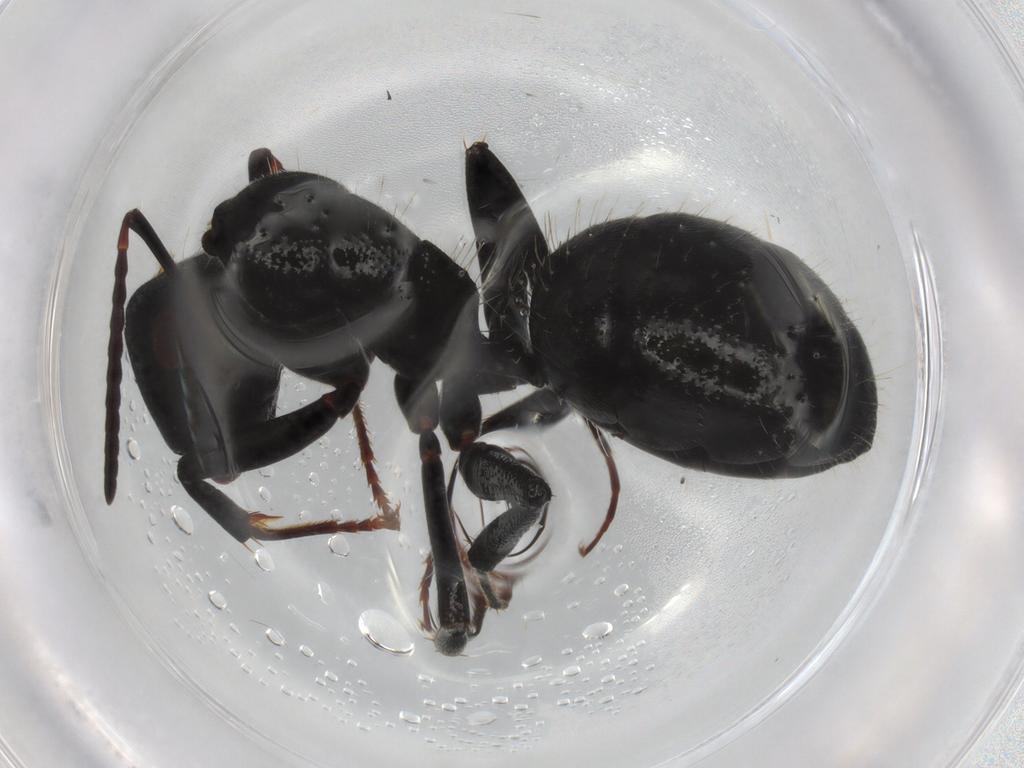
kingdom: Animalia
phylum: Arthropoda
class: Insecta
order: Hymenoptera
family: Formicidae
